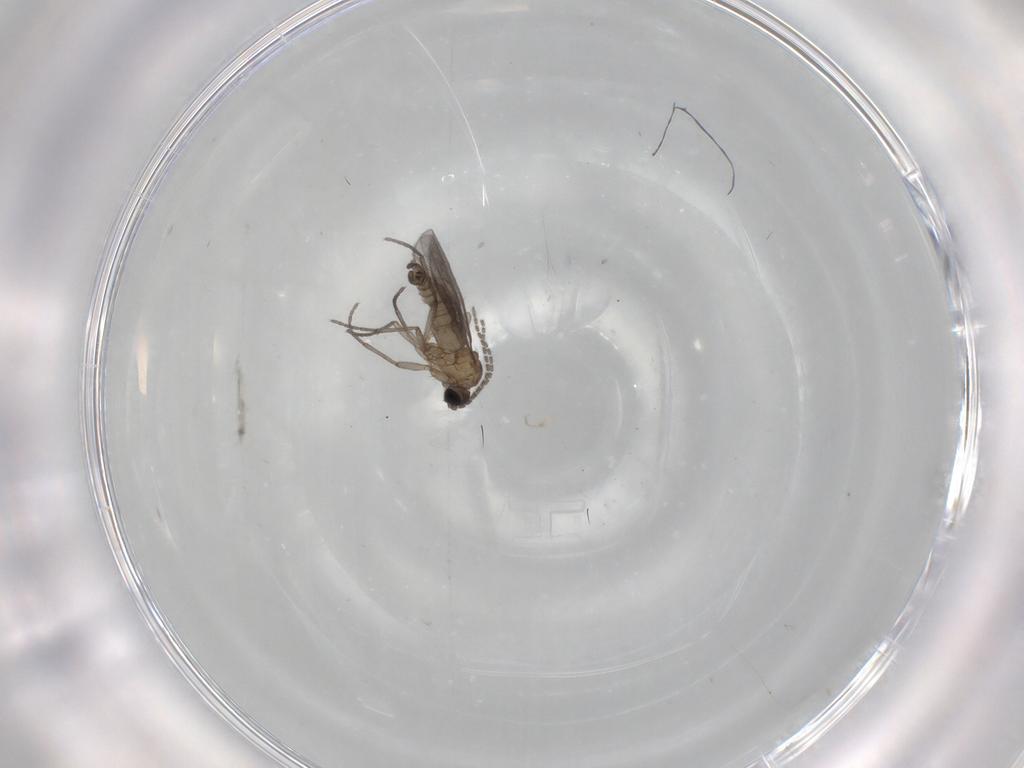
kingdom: Animalia
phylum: Arthropoda
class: Insecta
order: Diptera
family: Sciaridae
